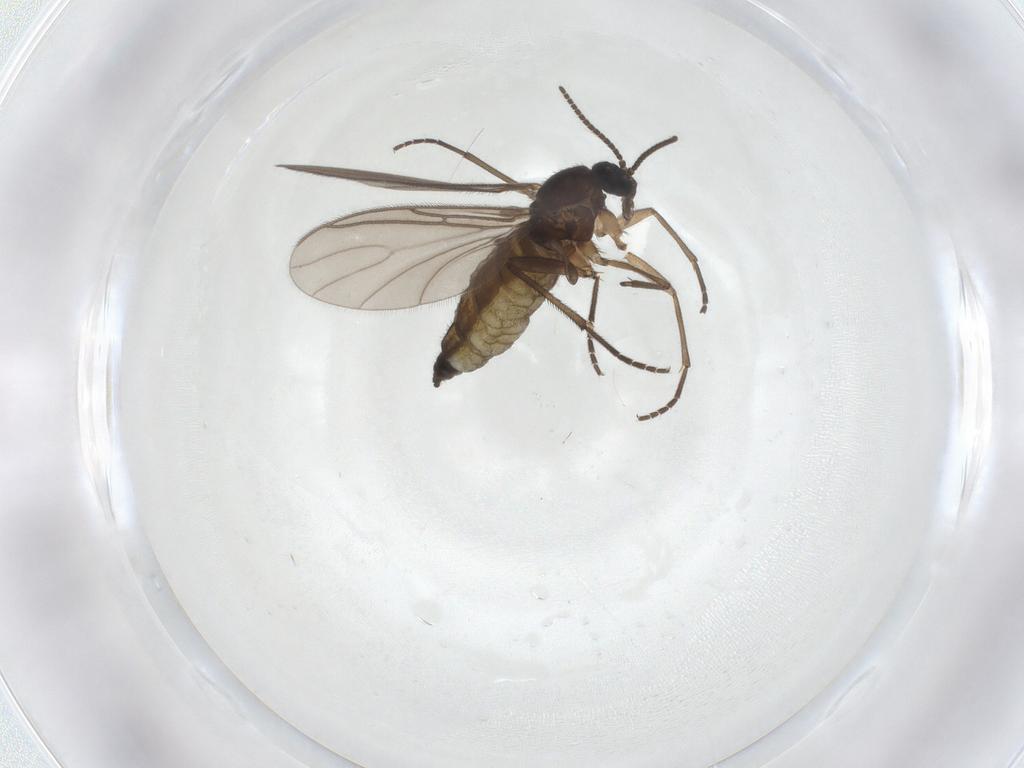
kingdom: Animalia
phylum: Arthropoda
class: Insecta
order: Diptera
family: Sciaridae
